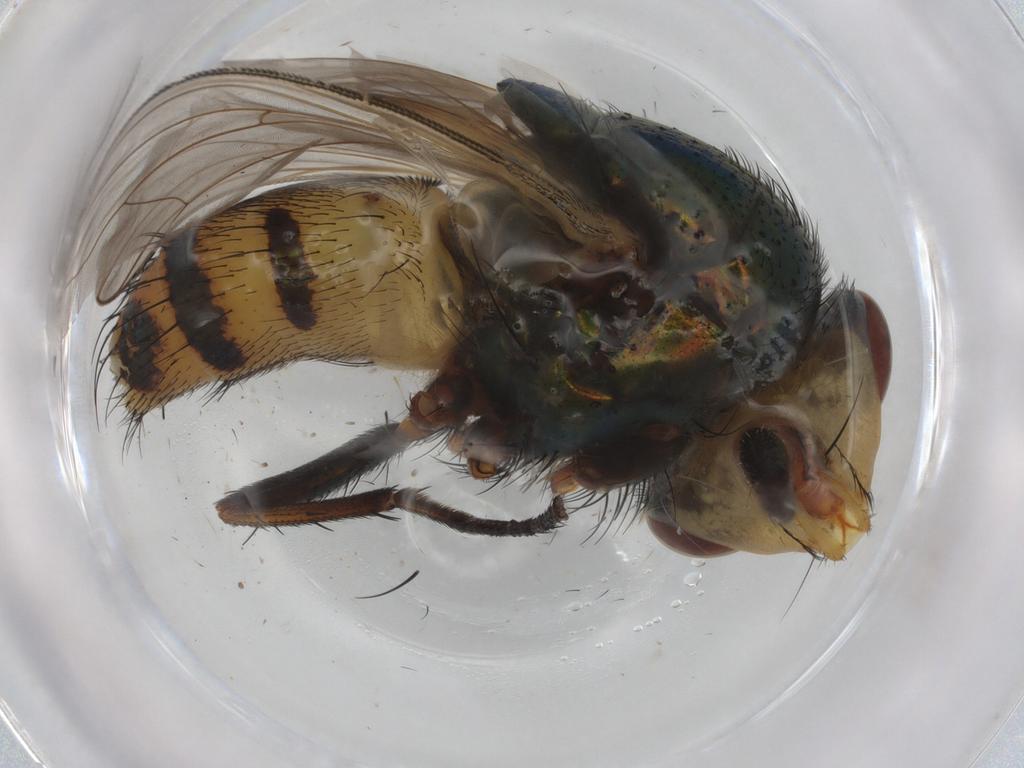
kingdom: Animalia
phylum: Arthropoda
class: Insecta
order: Diptera
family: Calliphoridae
